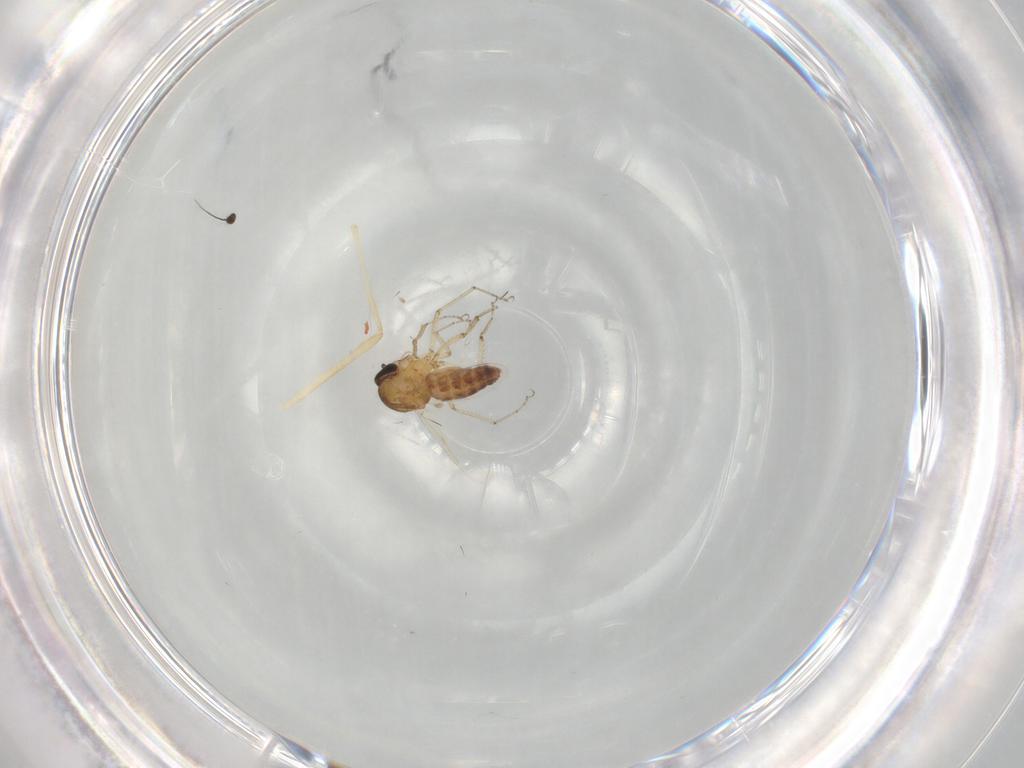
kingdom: Animalia
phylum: Arthropoda
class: Insecta
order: Diptera
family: Ceratopogonidae
